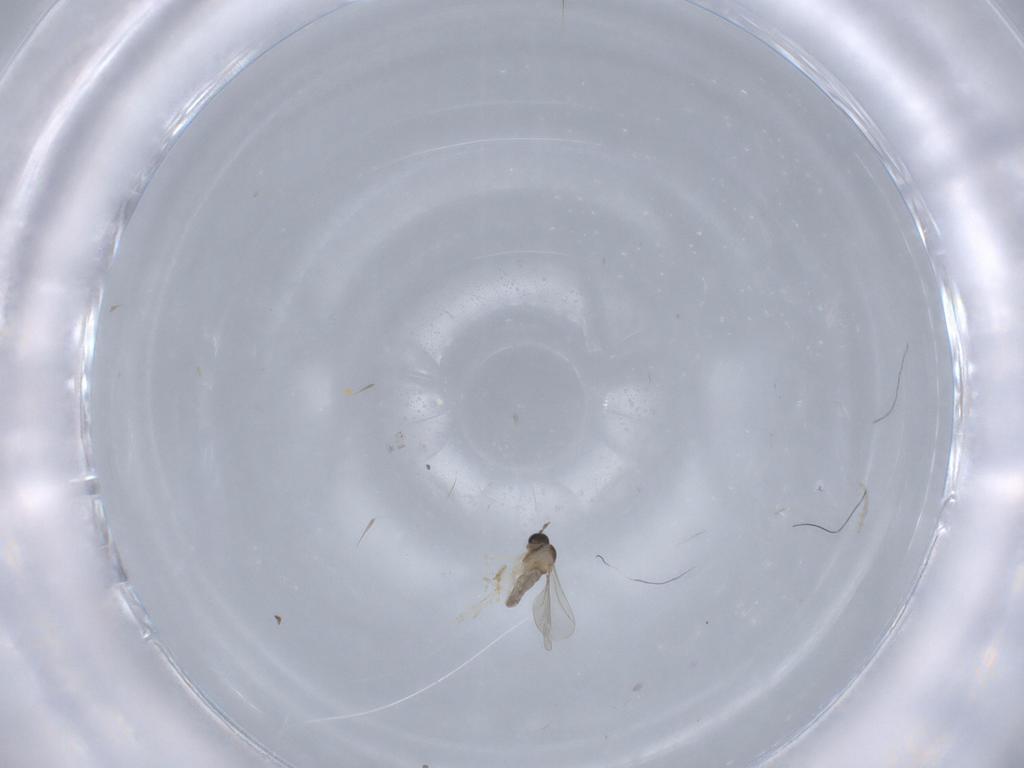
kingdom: Animalia
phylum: Arthropoda
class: Insecta
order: Diptera
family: Cecidomyiidae
